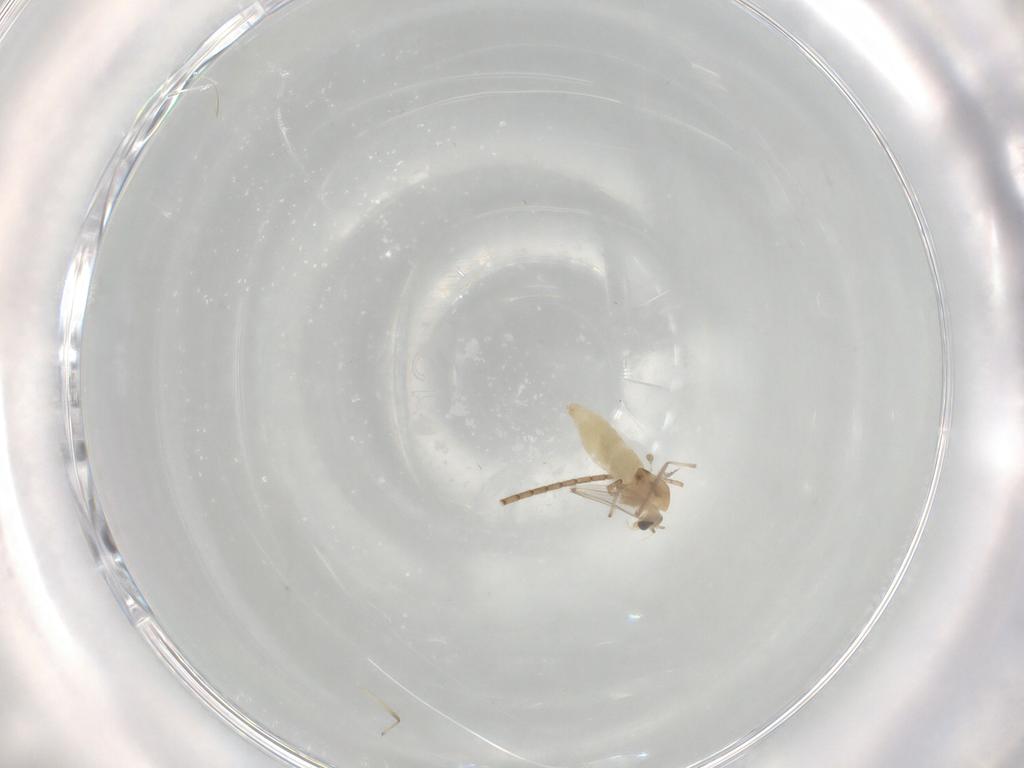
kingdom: Animalia
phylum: Arthropoda
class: Insecta
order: Diptera
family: Chironomidae
